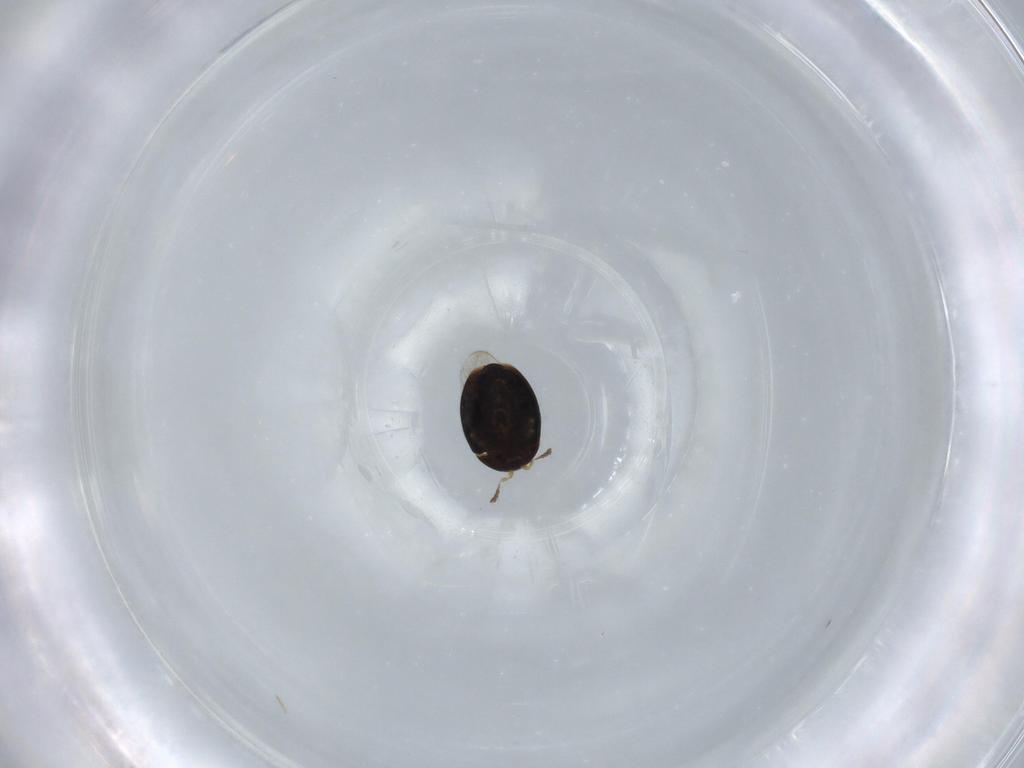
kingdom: Animalia
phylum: Arthropoda
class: Insecta
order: Coleoptera
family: Corylophidae
